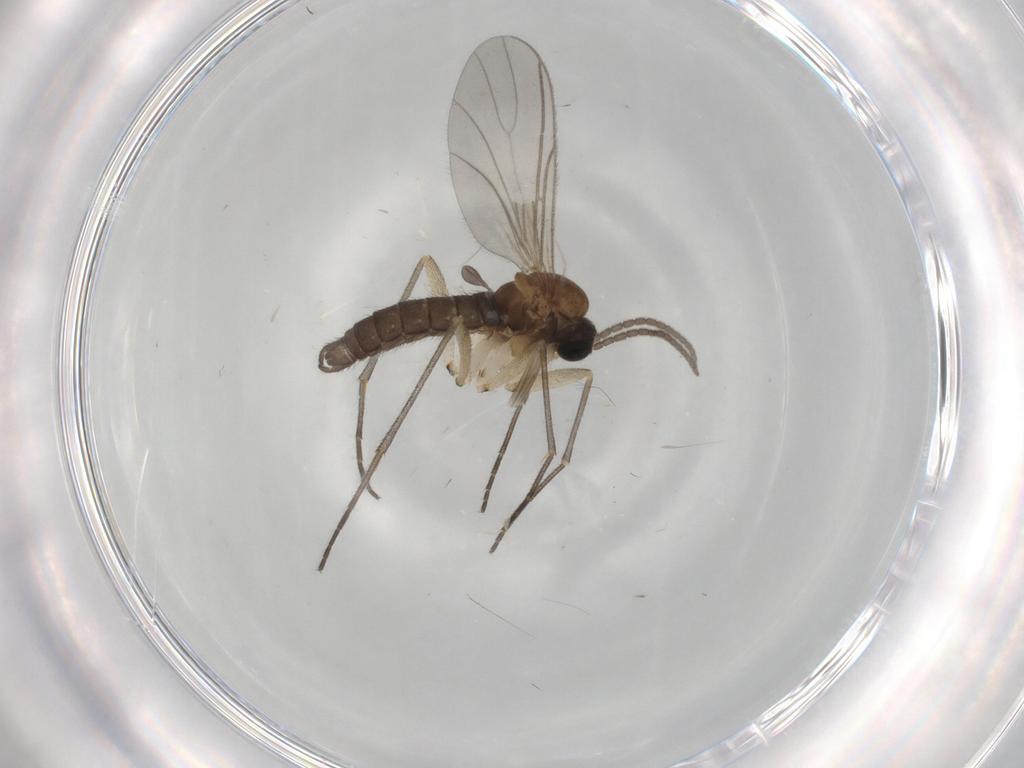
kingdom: Animalia
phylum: Arthropoda
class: Insecta
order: Diptera
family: Sciaridae
